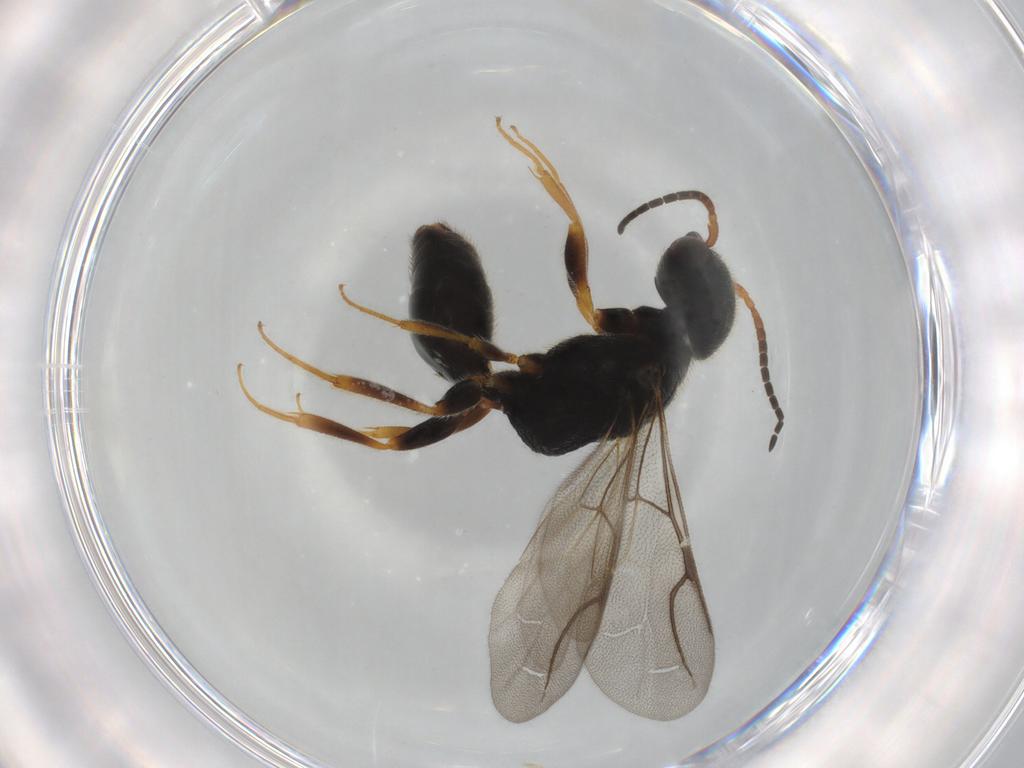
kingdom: Animalia
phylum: Arthropoda
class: Insecta
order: Hymenoptera
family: Bethylidae
